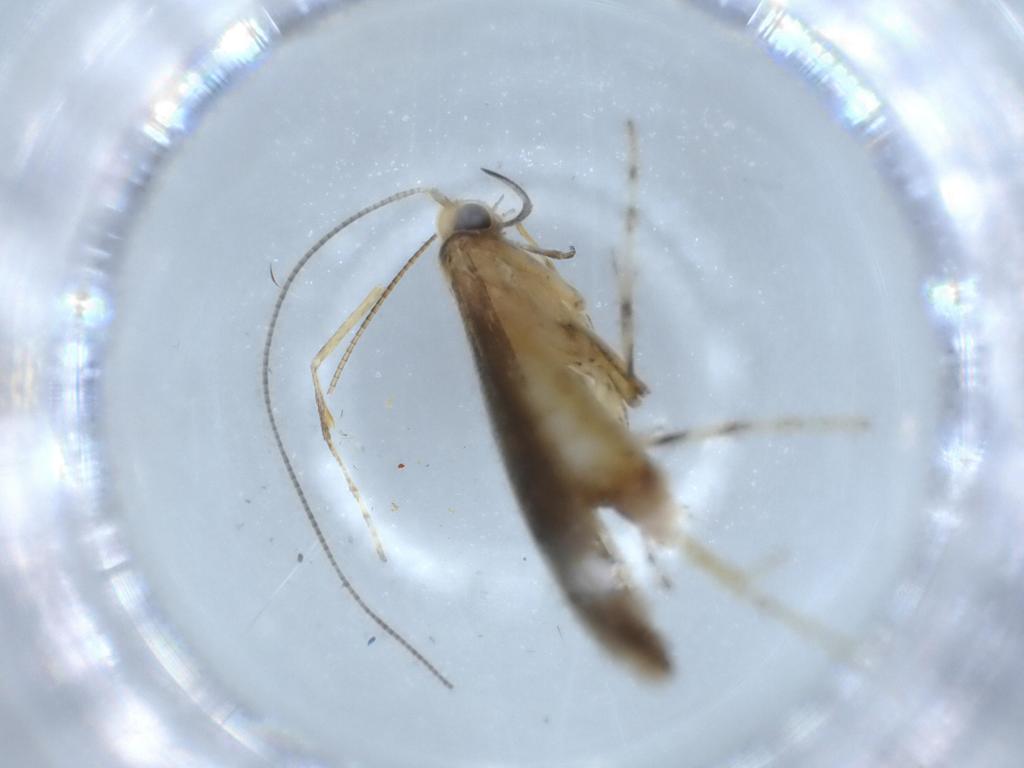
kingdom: Animalia
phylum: Arthropoda
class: Insecta
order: Lepidoptera
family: Gracillariidae
